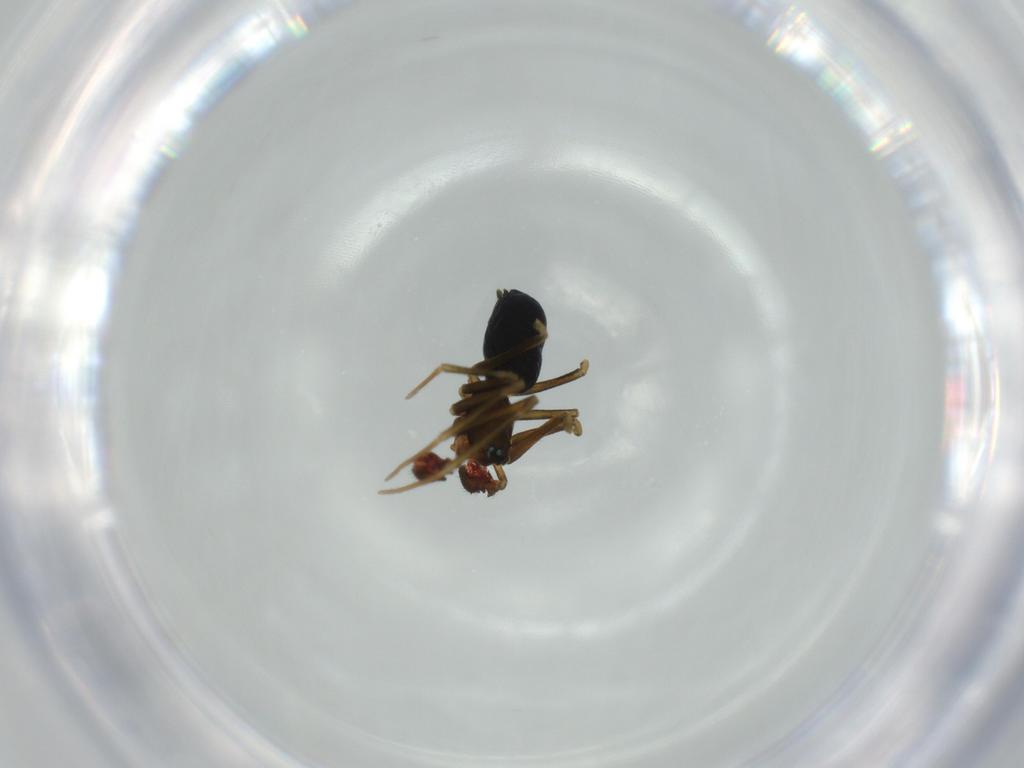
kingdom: Animalia
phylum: Arthropoda
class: Arachnida
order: Araneae
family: Linyphiidae
